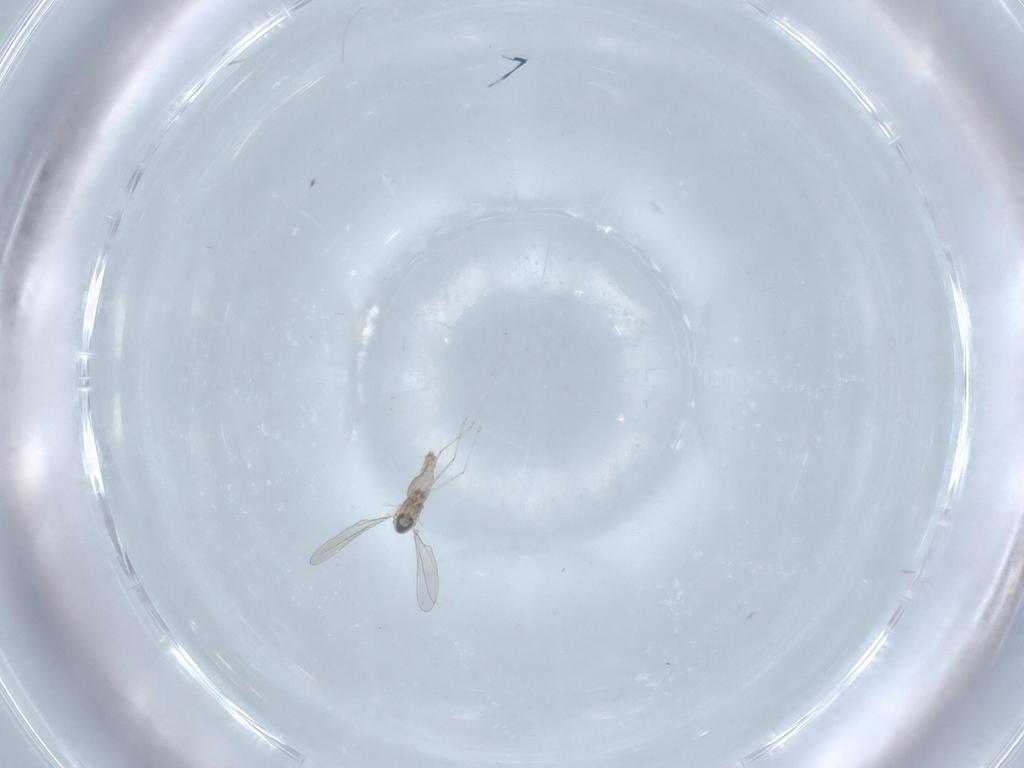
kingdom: Animalia
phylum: Arthropoda
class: Insecta
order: Diptera
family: Cecidomyiidae
